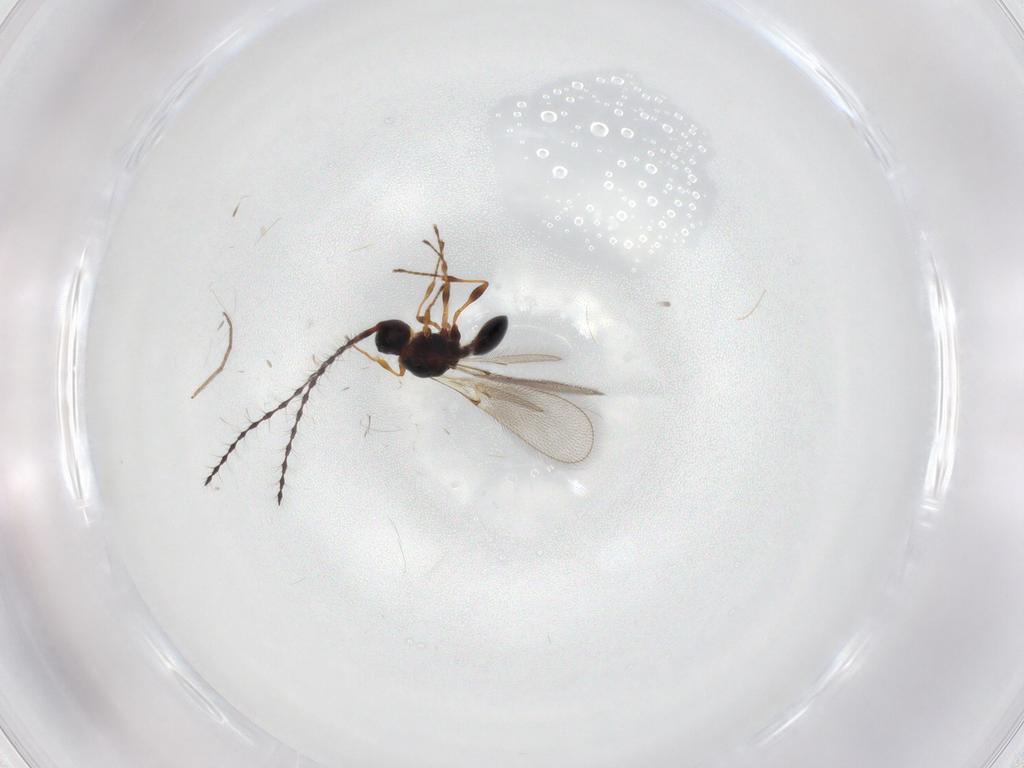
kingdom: Animalia
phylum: Arthropoda
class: Insecta
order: Hymenoptera
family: Diapriidae
